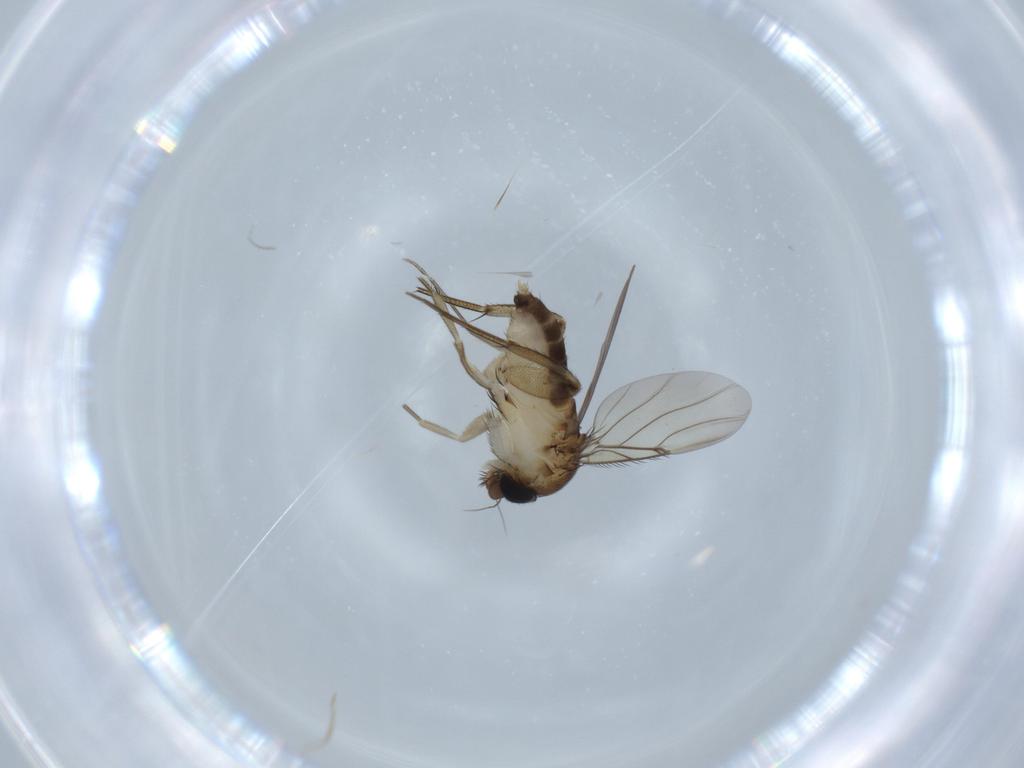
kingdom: Animalia
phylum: Arthropoda
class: Insecta
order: Diptera
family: Phoridae
